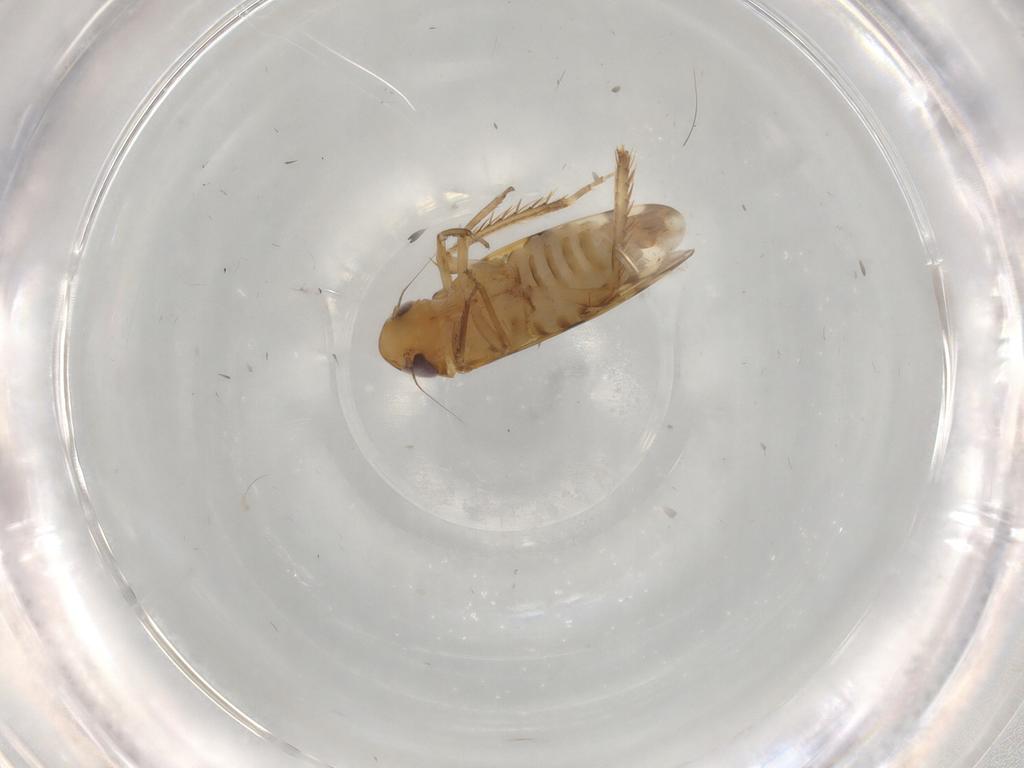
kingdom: Animalia
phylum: Arthropoda
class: Insecta
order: Hemiptera
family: Cicadellidae
